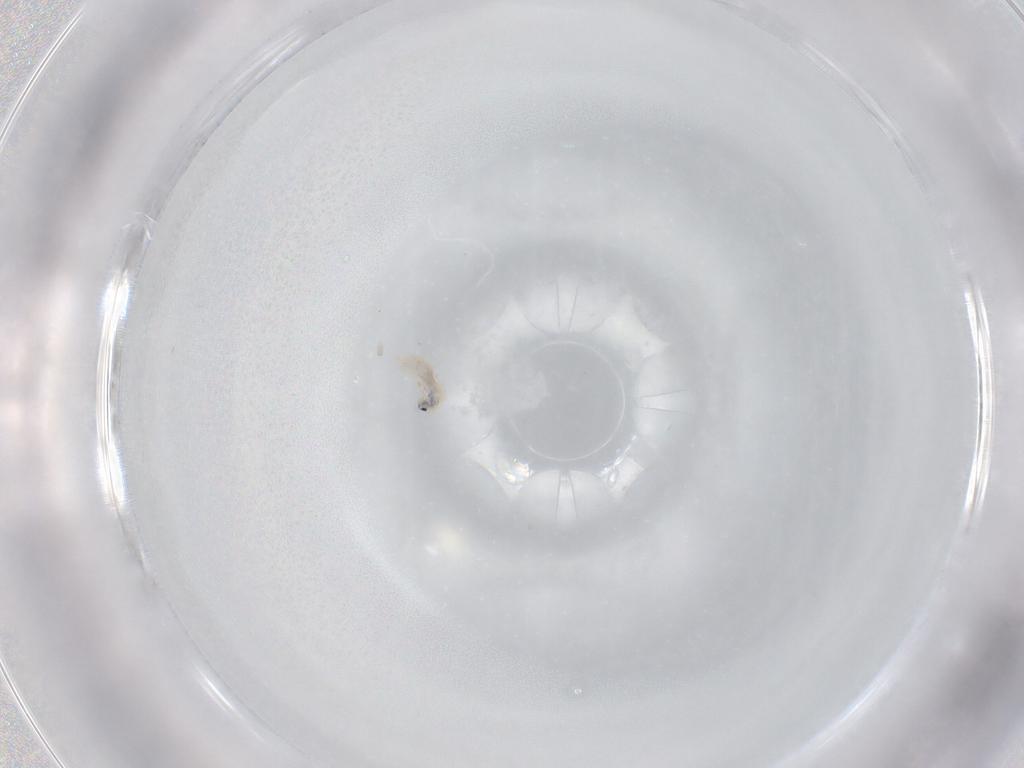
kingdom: Animalia
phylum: Arthropoda
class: Collembola
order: Entomobryomorpha
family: Entomobryidae
